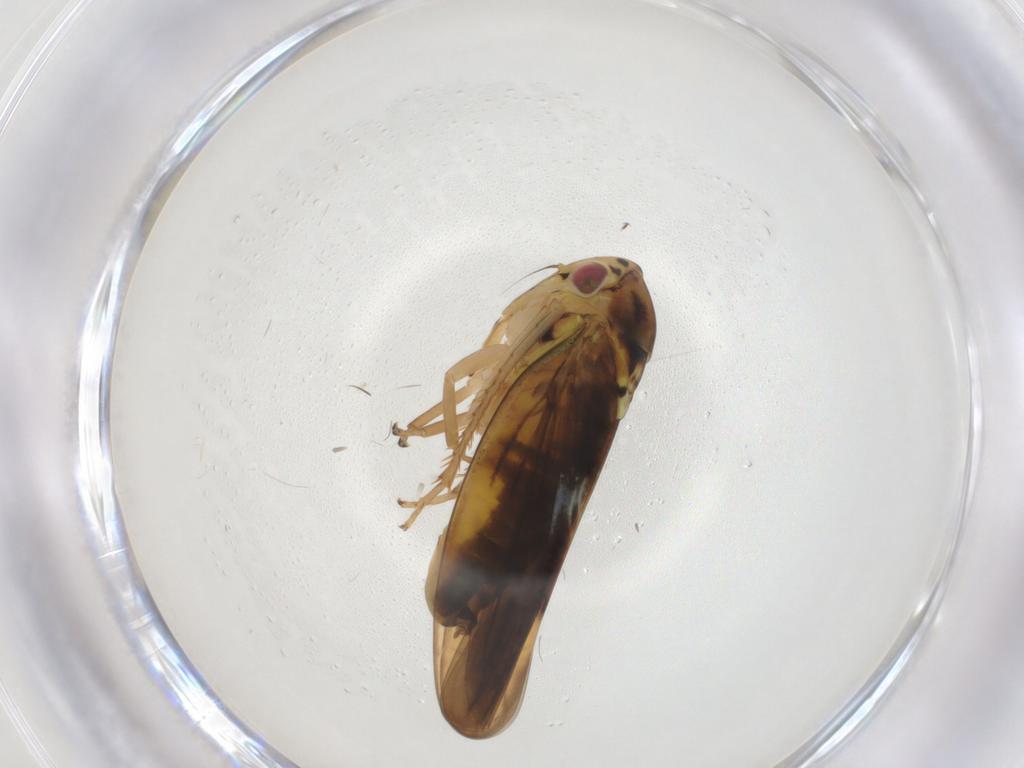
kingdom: Animalia
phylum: Arthropoda
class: Insecta
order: Hemiptera
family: Cicadellidae
